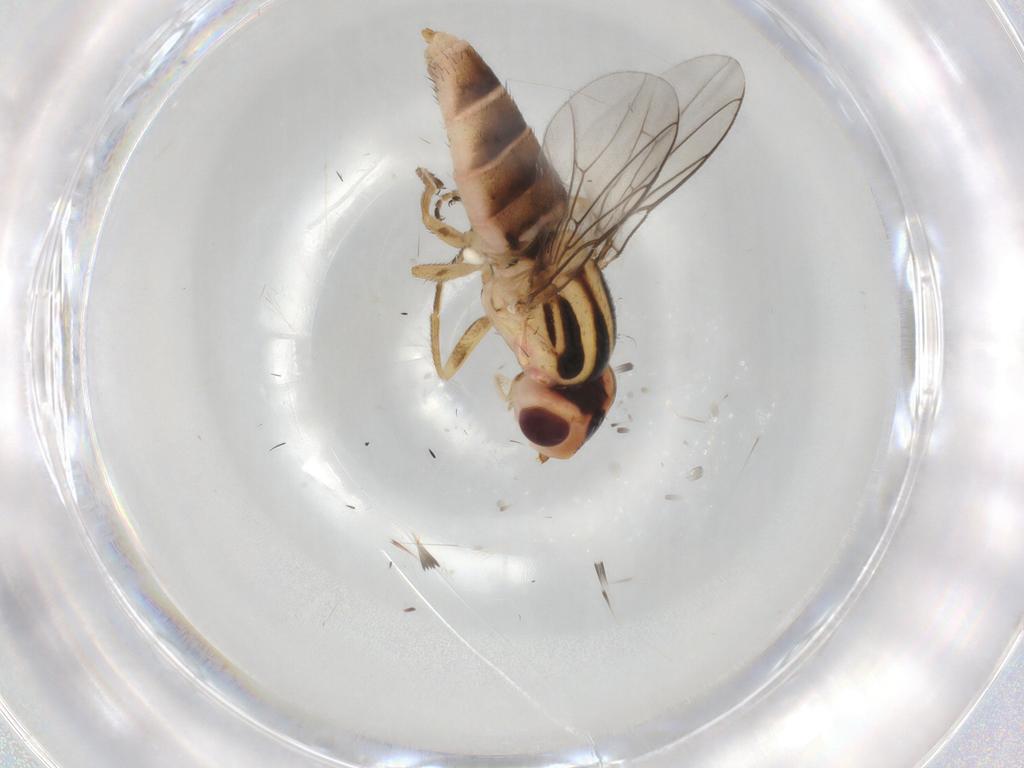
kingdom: Animalia
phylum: Arthropoda
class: Insecta
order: Diptera
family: Chloropidae
